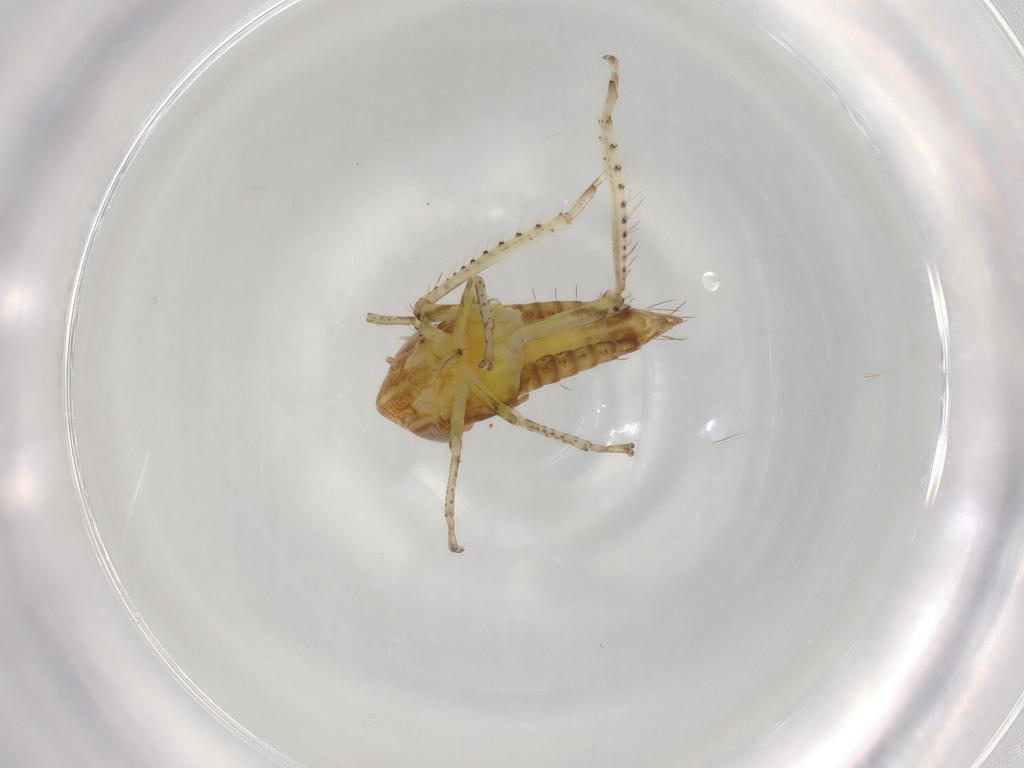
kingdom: Animalia
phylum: Arthropoda
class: Insecta
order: Hemiptera
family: Cicadellidae
